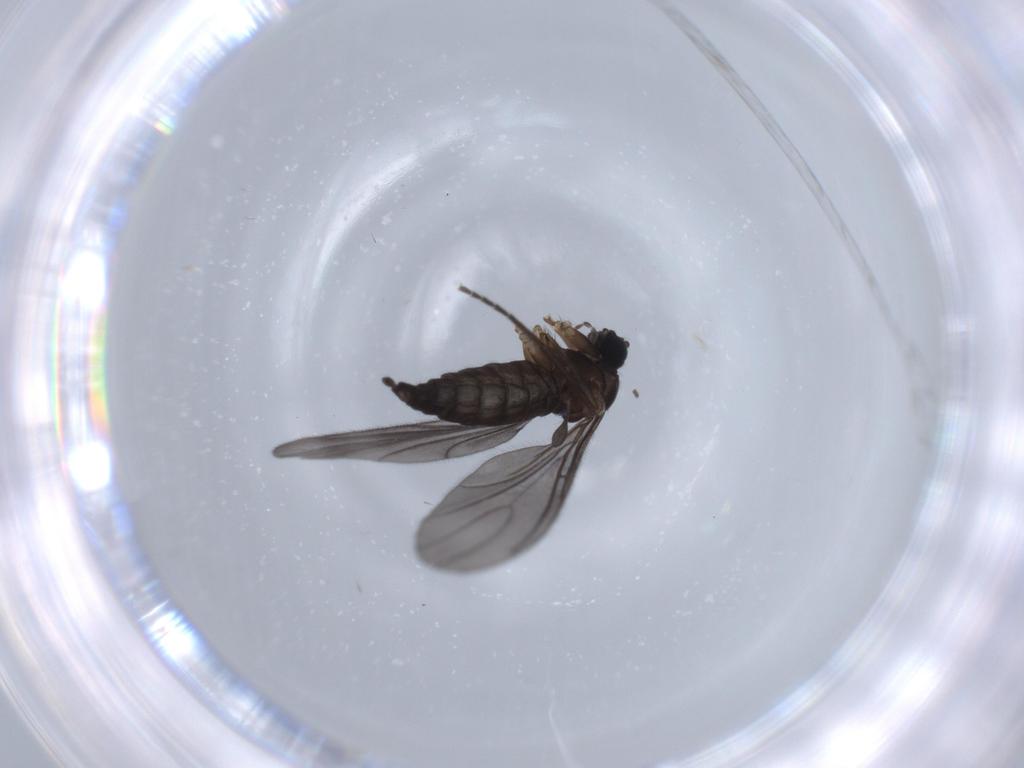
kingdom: Animalia
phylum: Arthropoda
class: Insecta
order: Diptera
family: Sciaridae
